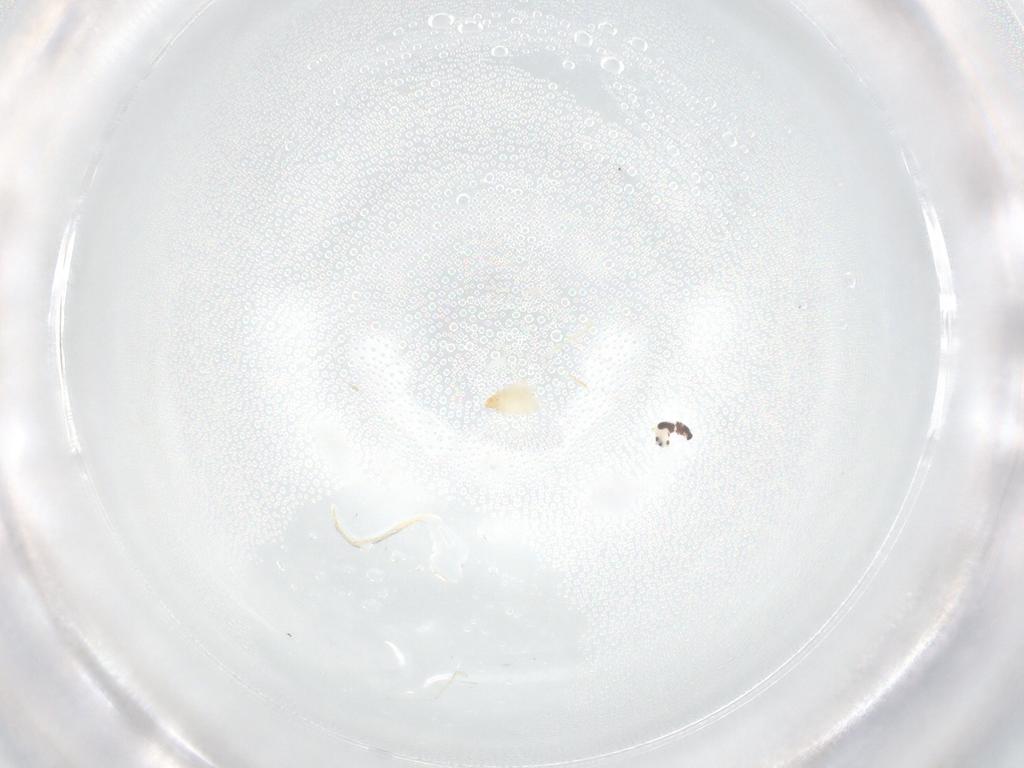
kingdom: Animalia
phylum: Arthropoda
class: Insecta
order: Diptera
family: Cecidomyiidae
